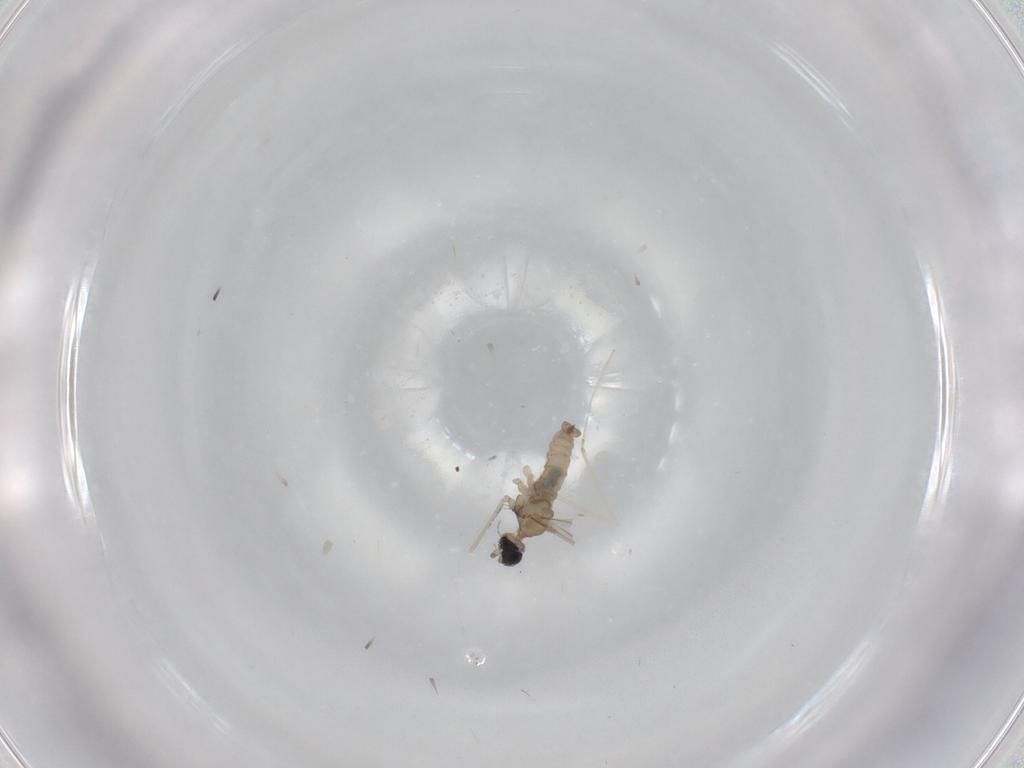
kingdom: Animalia
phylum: Arthropoda
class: Insecta
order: Diptera
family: Cecidomyiidae
